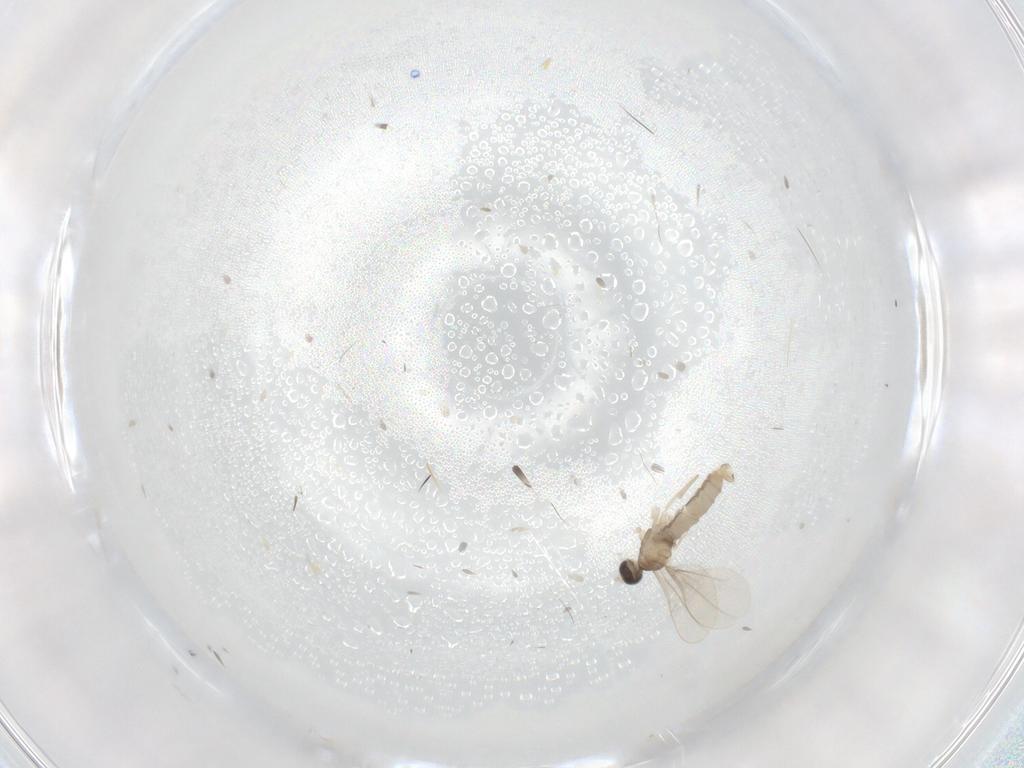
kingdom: Animalia
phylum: Arthropoda
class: Insecta
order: Diptera
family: Cecidomyiidae
